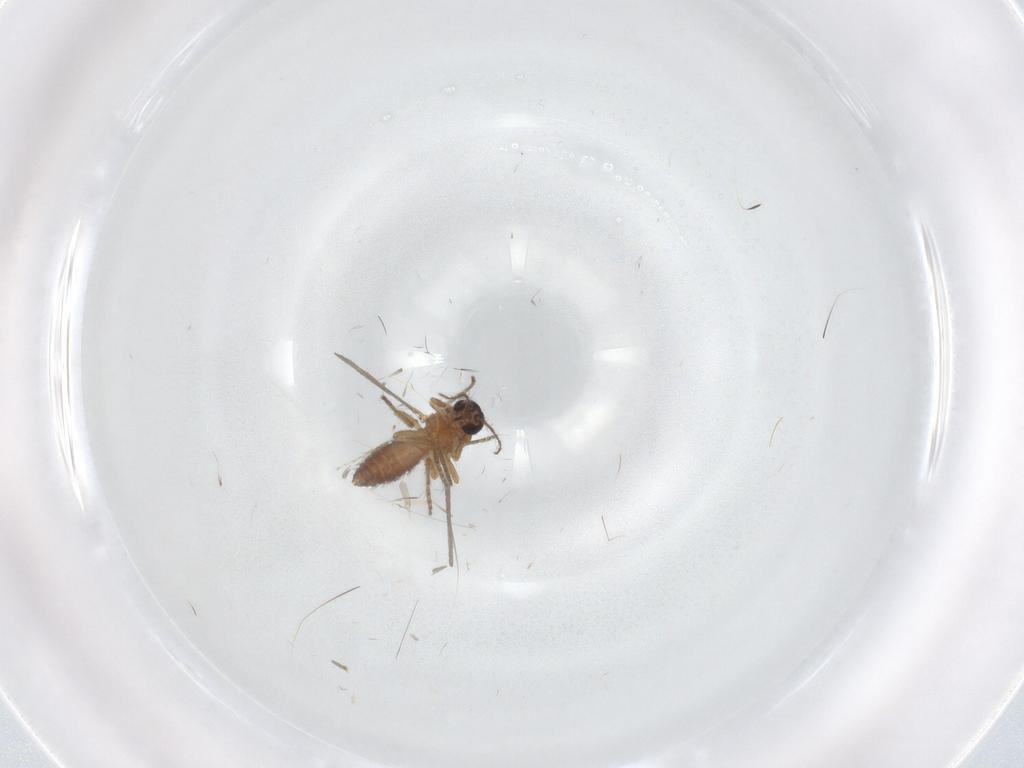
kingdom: Animalia
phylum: Arthropoda
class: Insecta
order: Diptera
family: Ceratopogonidae
